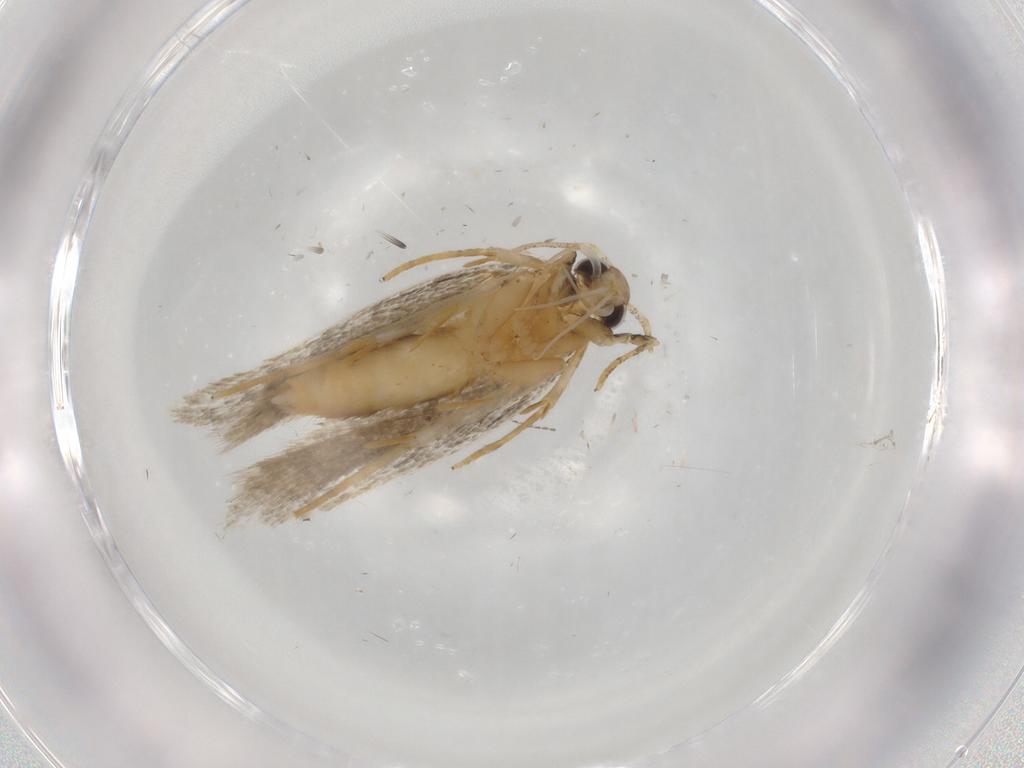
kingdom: Animalia
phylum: Arthropoda
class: Insecta
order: Lepidoptera
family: Autostichidae
